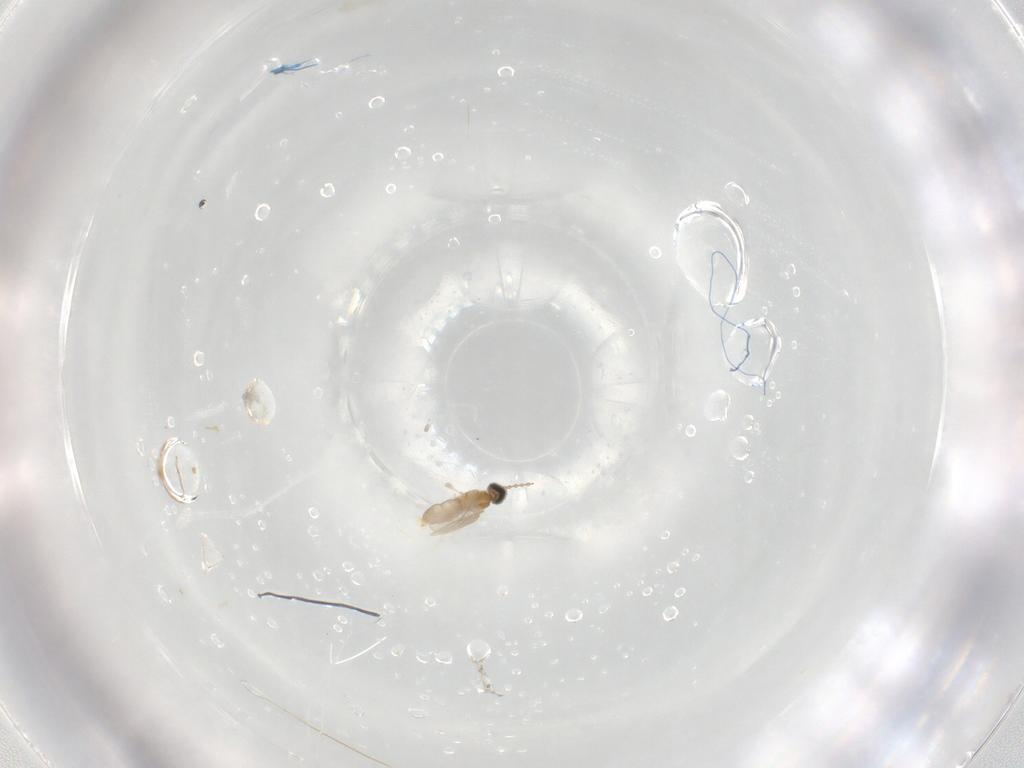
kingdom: Animalia
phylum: Arthropoda
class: Insecta
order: Diptera
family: Cecidomyiidae
